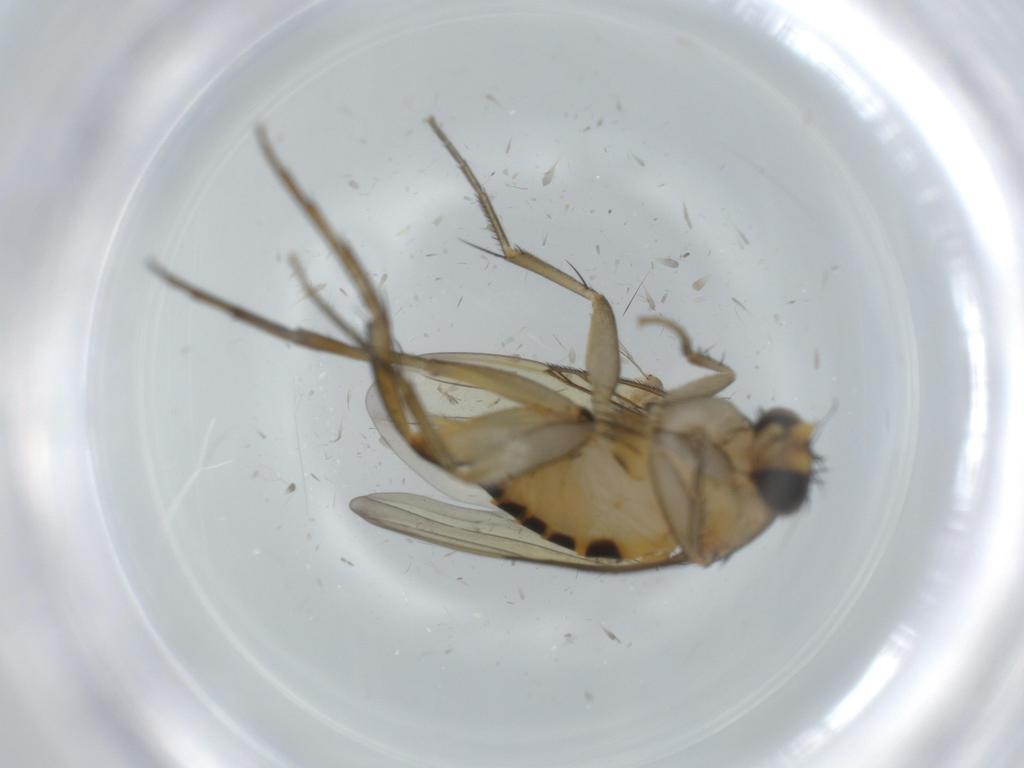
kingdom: Animalia
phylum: Arthropoda
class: Insecta
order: Diptera
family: Phoridae
